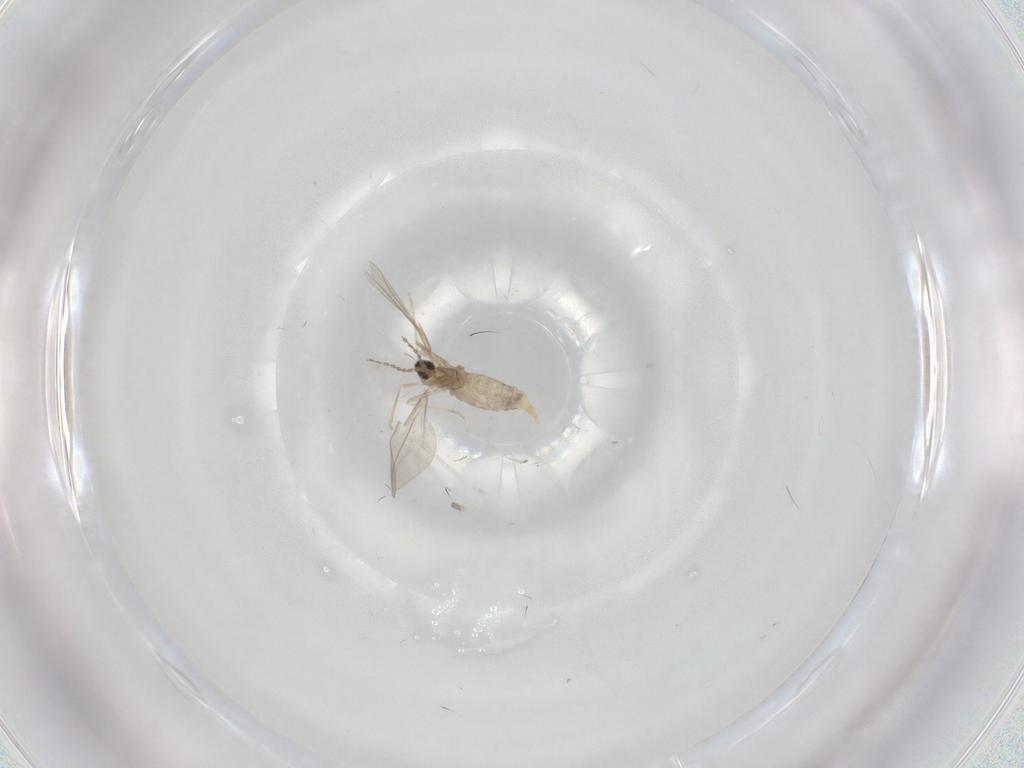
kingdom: Animalia
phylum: Arthropoda
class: Insecta
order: Diptera
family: Cecidomyiidae
